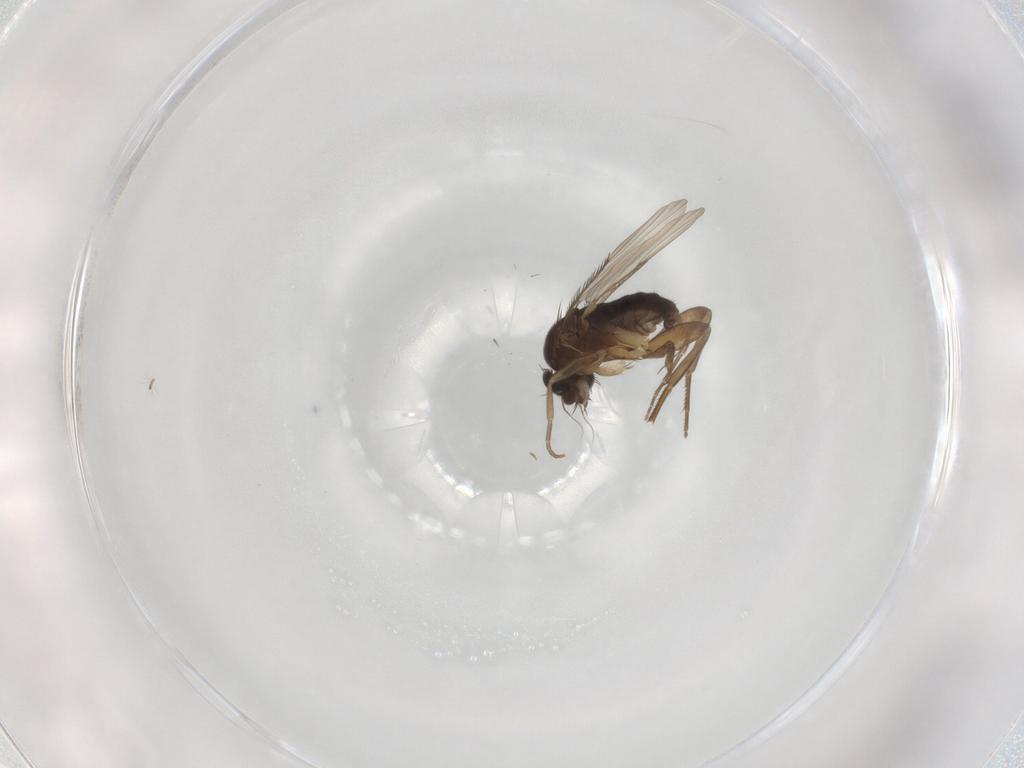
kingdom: Animalia
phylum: Arthropoda
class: Insecta
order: Diptera
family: Phoridae
